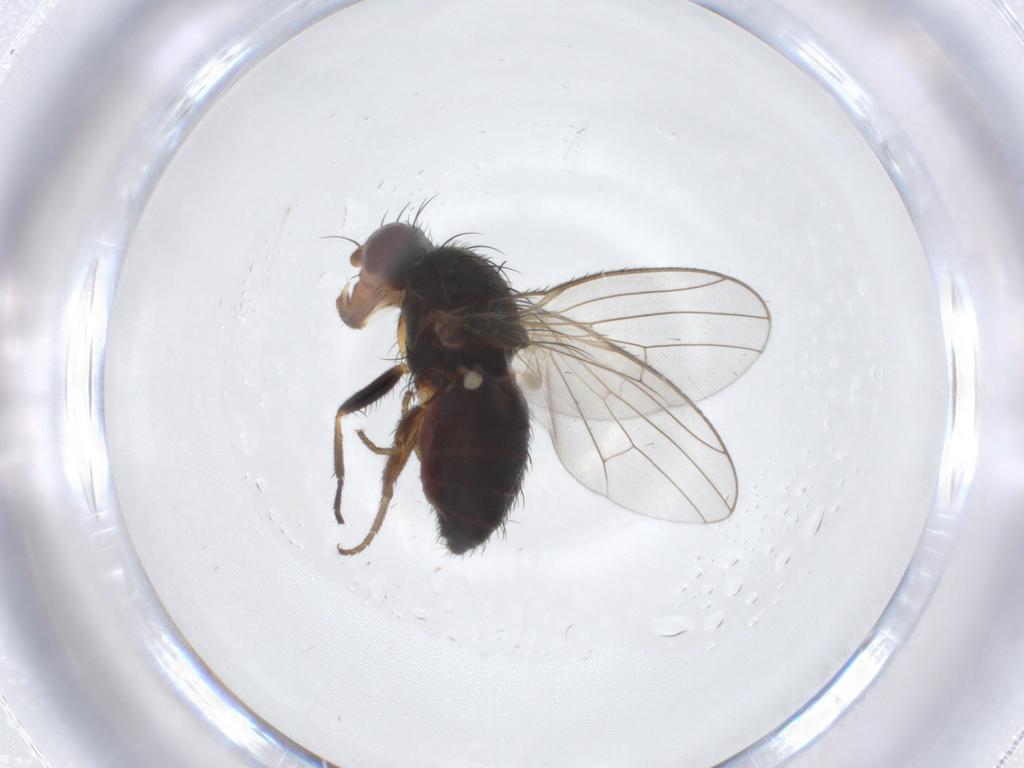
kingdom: Animalia
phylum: Arthropoda
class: Insecta
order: Diptera
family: Heleomyzidae
